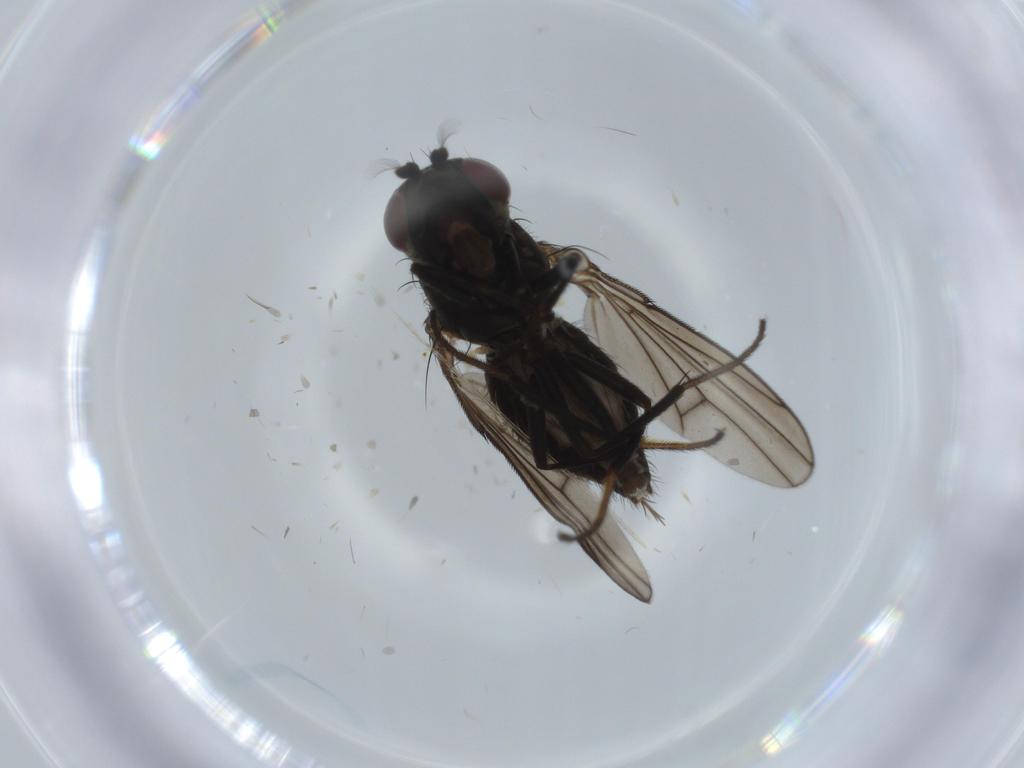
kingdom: Animalia
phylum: Arthropoda
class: Insecta
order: Diptera
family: Ephydridae
